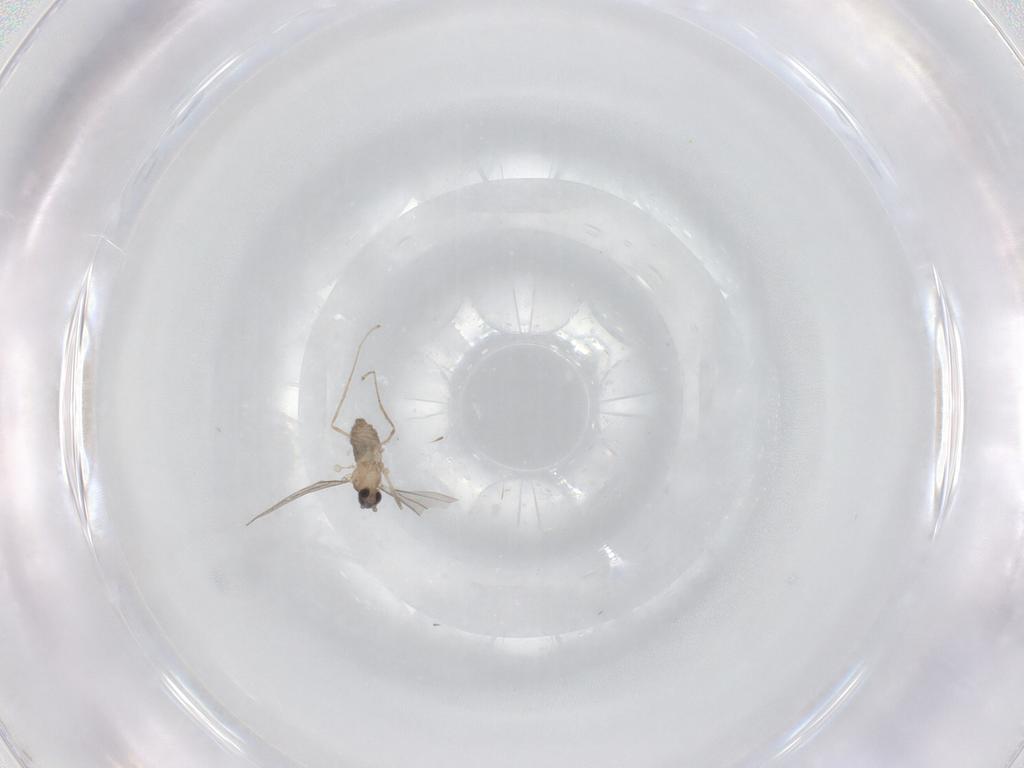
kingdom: Animalia
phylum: Arthropoda
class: Insecta
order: Diptera
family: Cecidomyiidae
